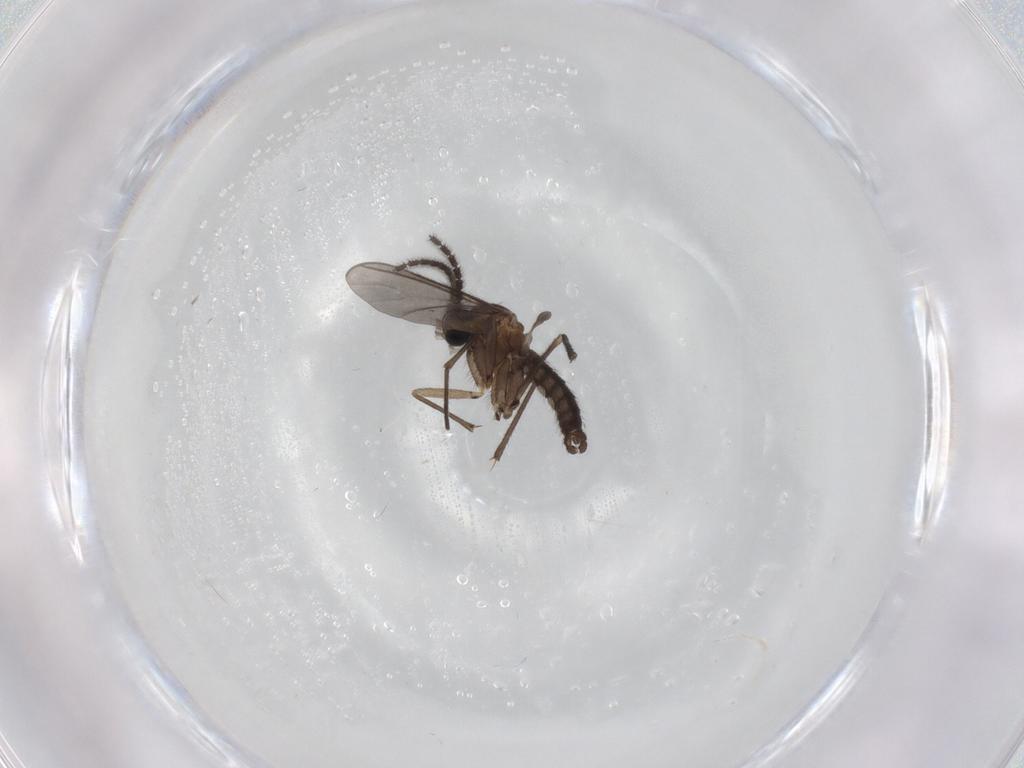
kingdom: Animalia
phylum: Arthropoda
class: Insecta
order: Diptera
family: Sciaridae
